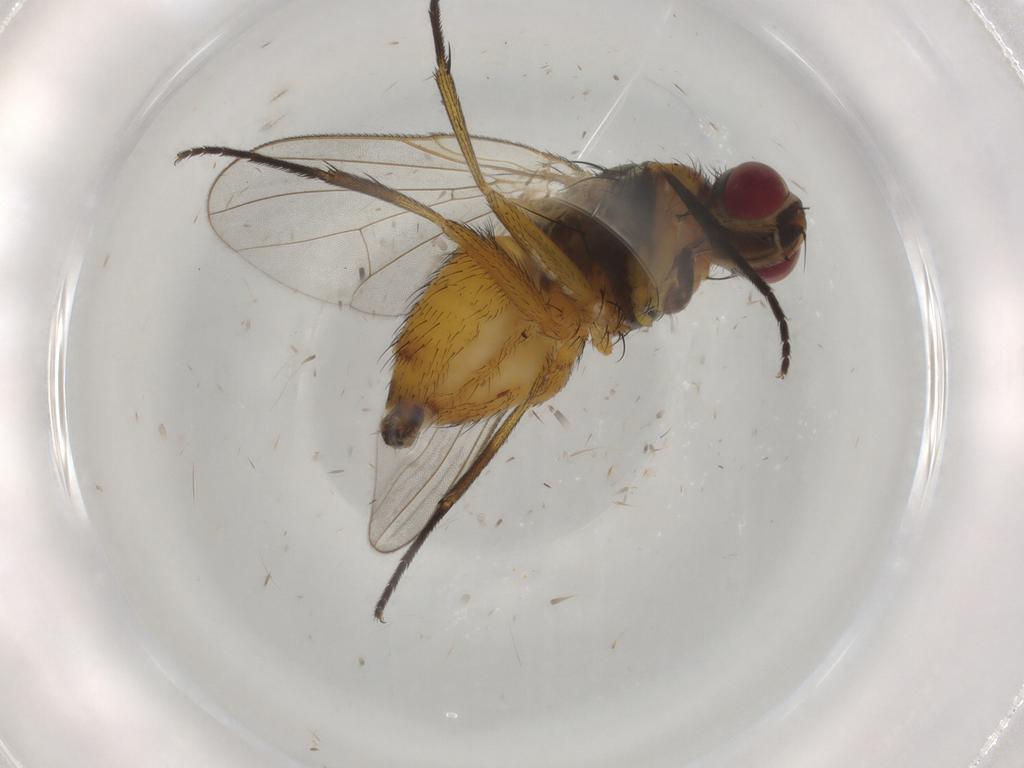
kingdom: Animalia
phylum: Arthropoda
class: Insecta
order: Diptera
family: Muscidae
